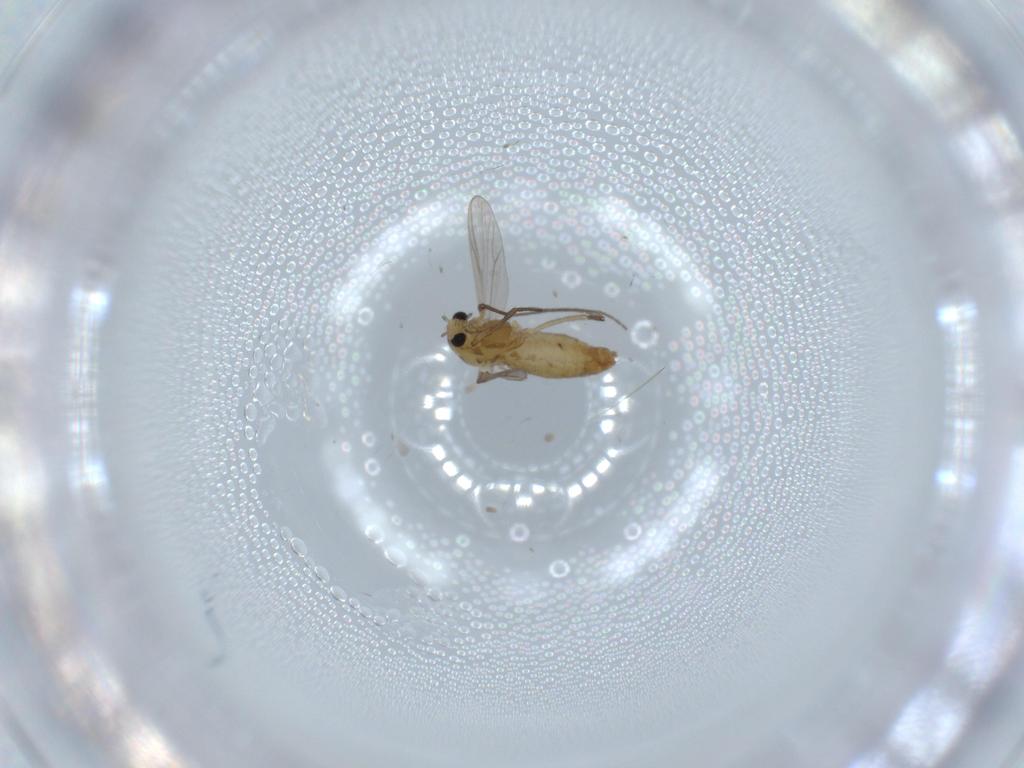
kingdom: Animalia
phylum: Arthropoda
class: Insecta
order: Diptera
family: Chironomidae
